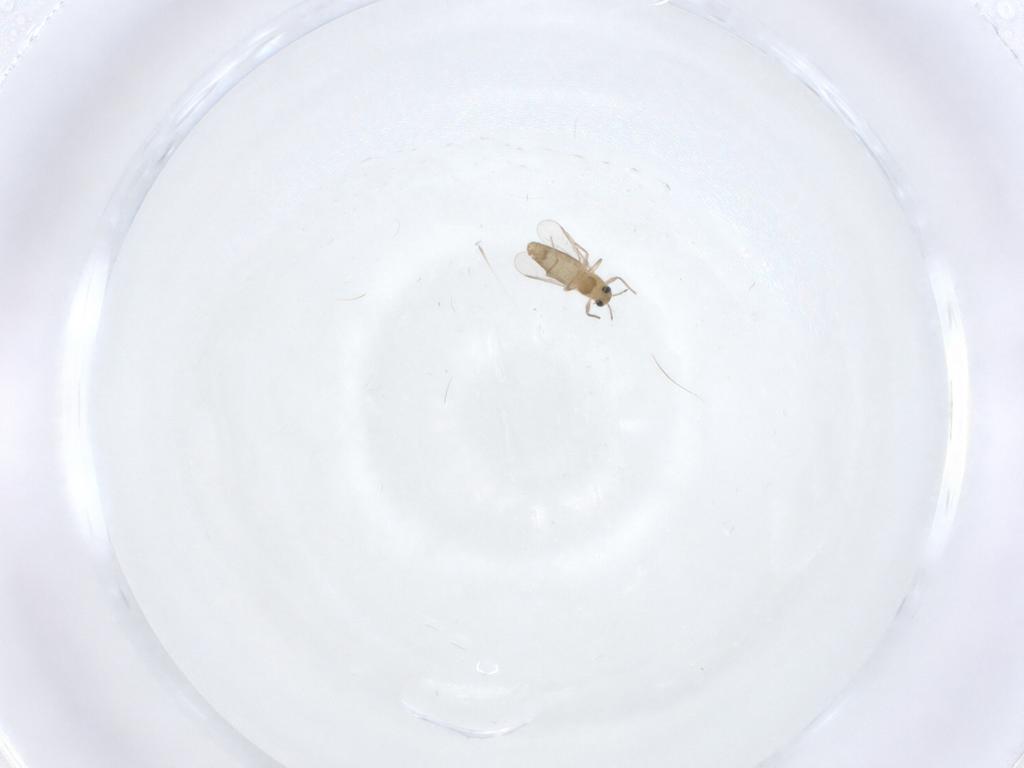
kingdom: Animalia
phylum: Arthropoda
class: Insecta
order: Diptera
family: Chironomidae
